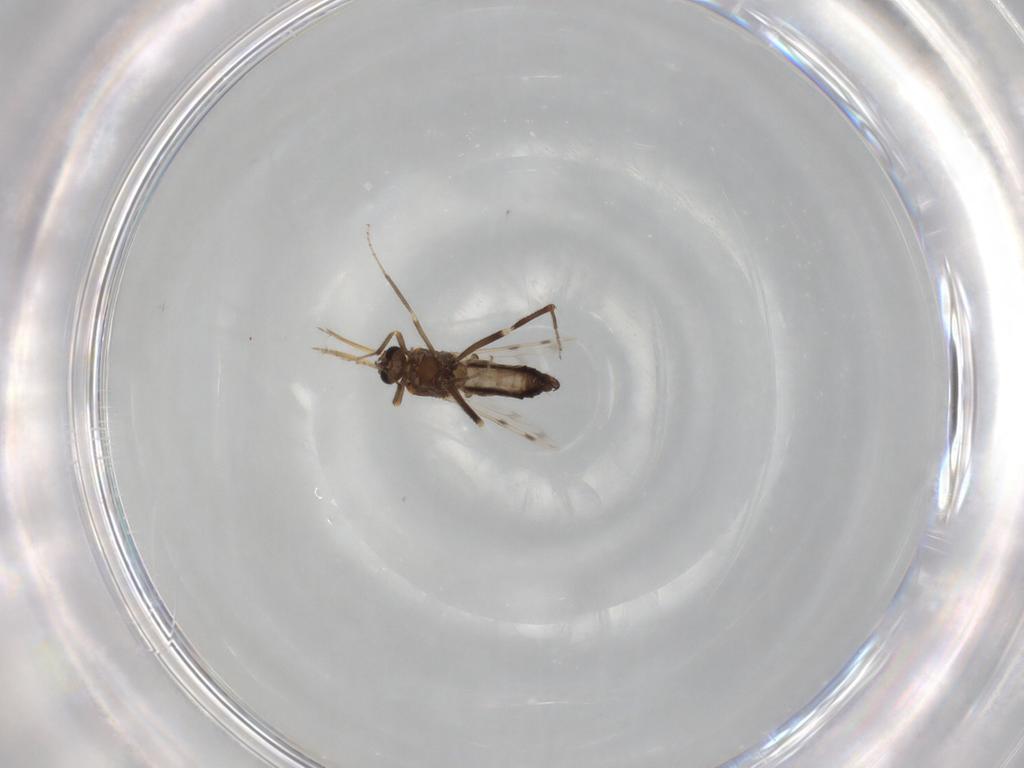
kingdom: Animalia
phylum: Arthropoda
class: Insecta
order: Diptera
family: Ceratopogonidae
